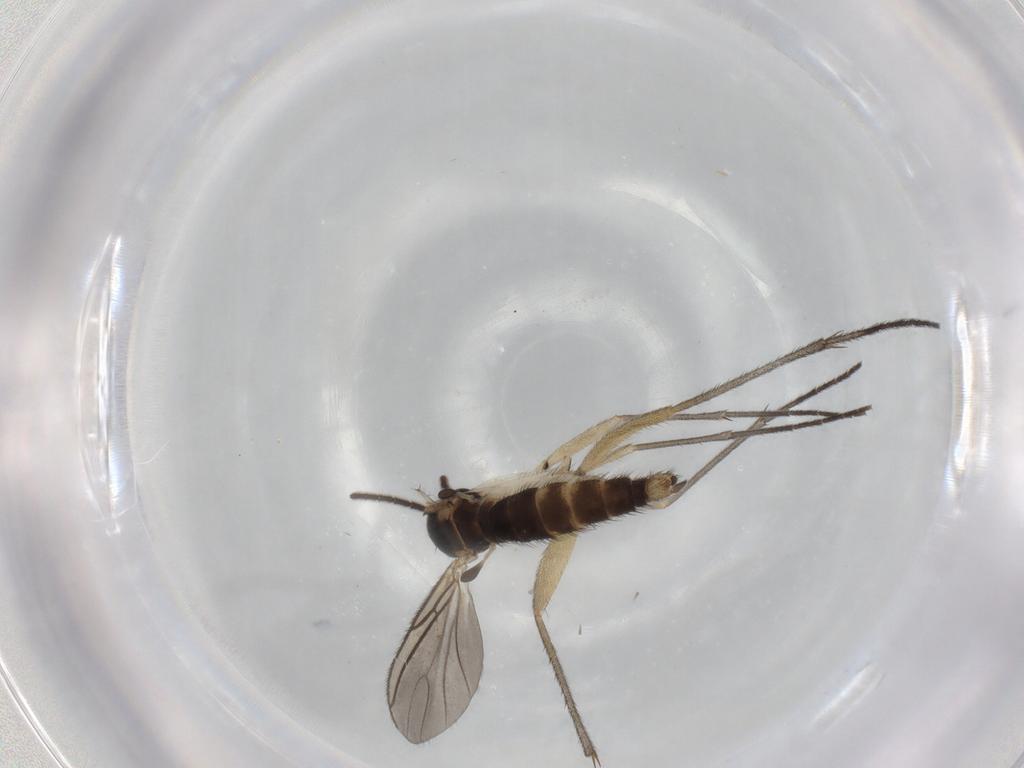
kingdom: Animalia
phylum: Arthropoda
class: Insecta
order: Diptera
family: Sciaridae
